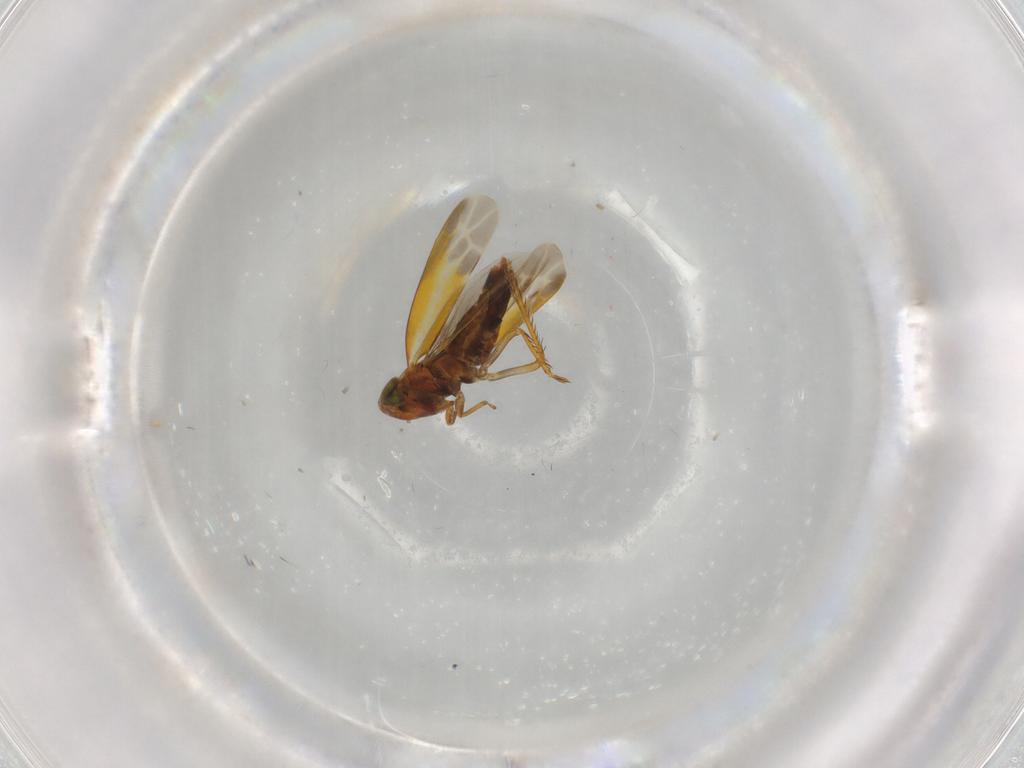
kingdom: Animalia
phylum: Arthropoda
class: Insecta
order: Hemiptera
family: Cicadellidae
